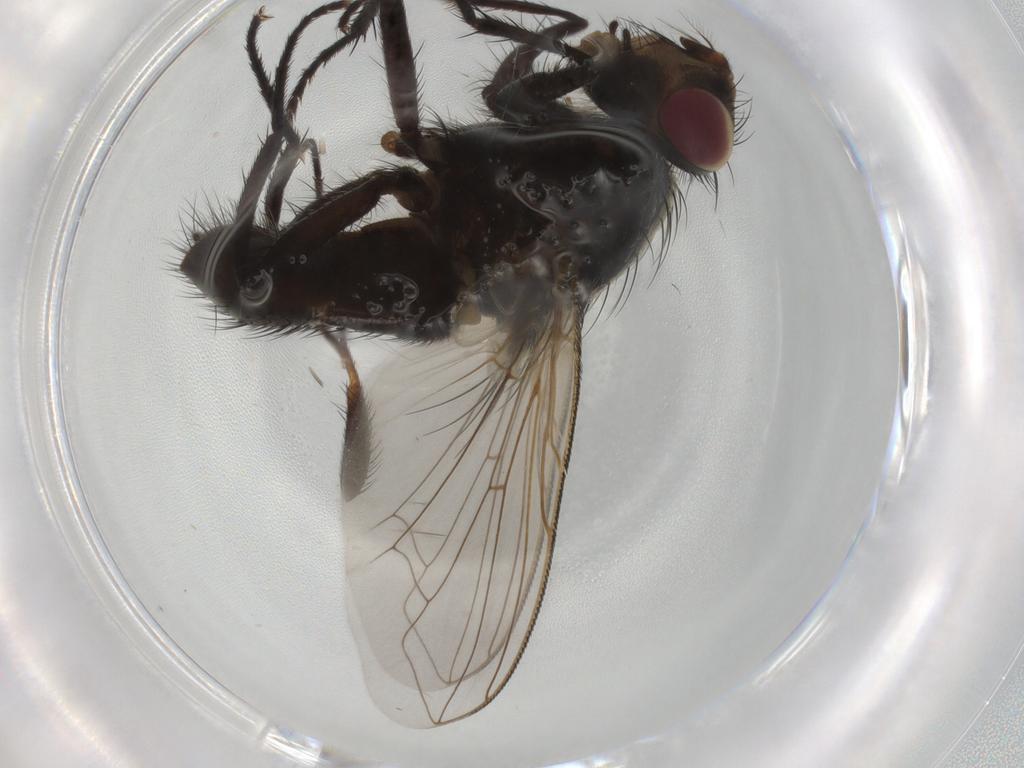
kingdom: Animalia
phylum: Arthropoda
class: Insecta
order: Diptera
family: Polleniidae
